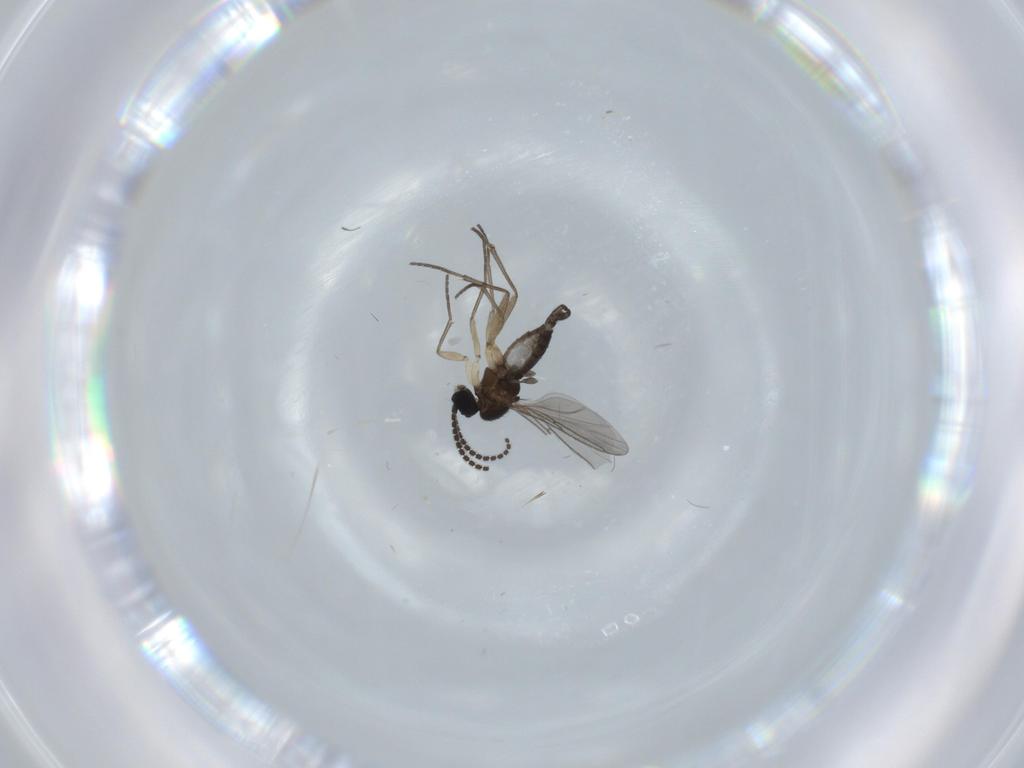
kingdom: Animalia
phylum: Arthropoda
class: Insecta
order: Diptera
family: Sciaridae
